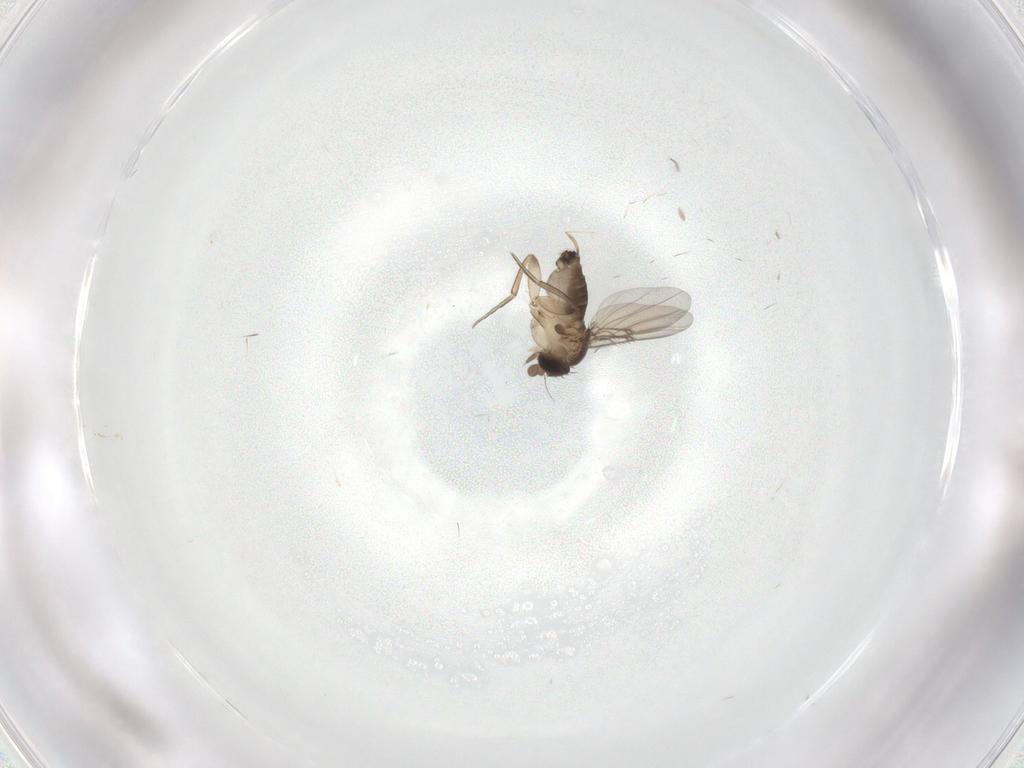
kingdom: Animalia
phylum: Arthropoda
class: Insecta
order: Diptera
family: Phoridae
